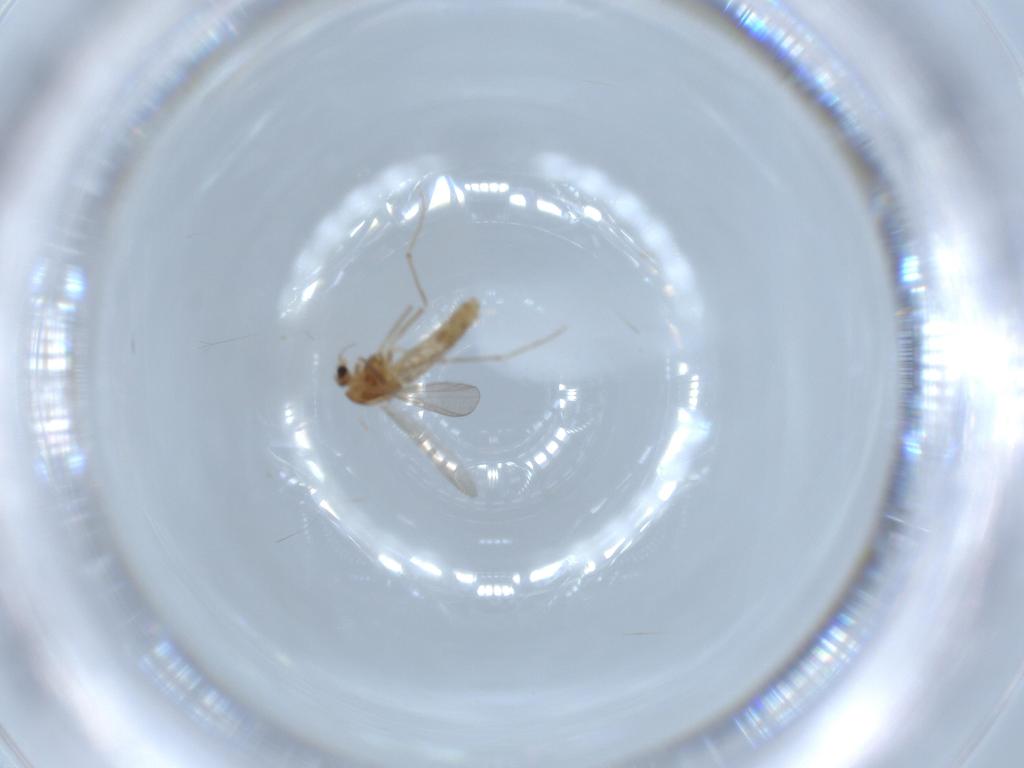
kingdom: Animalia
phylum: Arthropoda
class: Insecta
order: Diptera
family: Chironomidae
